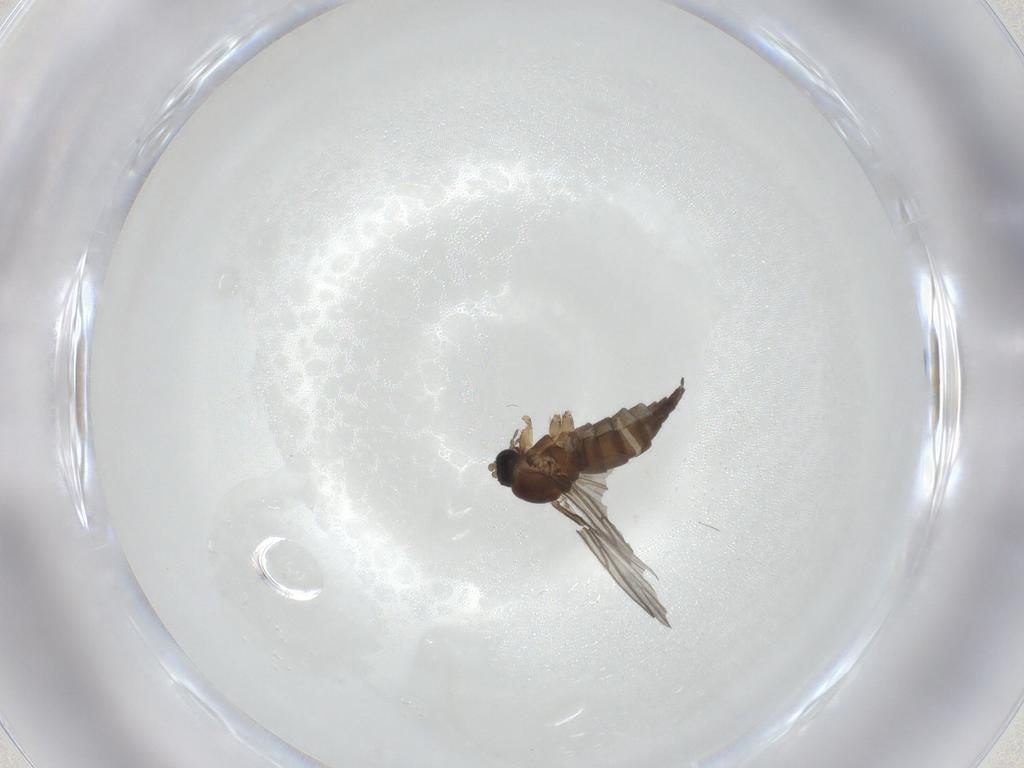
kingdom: Animalia
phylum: Arthropoda
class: Insecta
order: Diptera
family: Sciaridae
